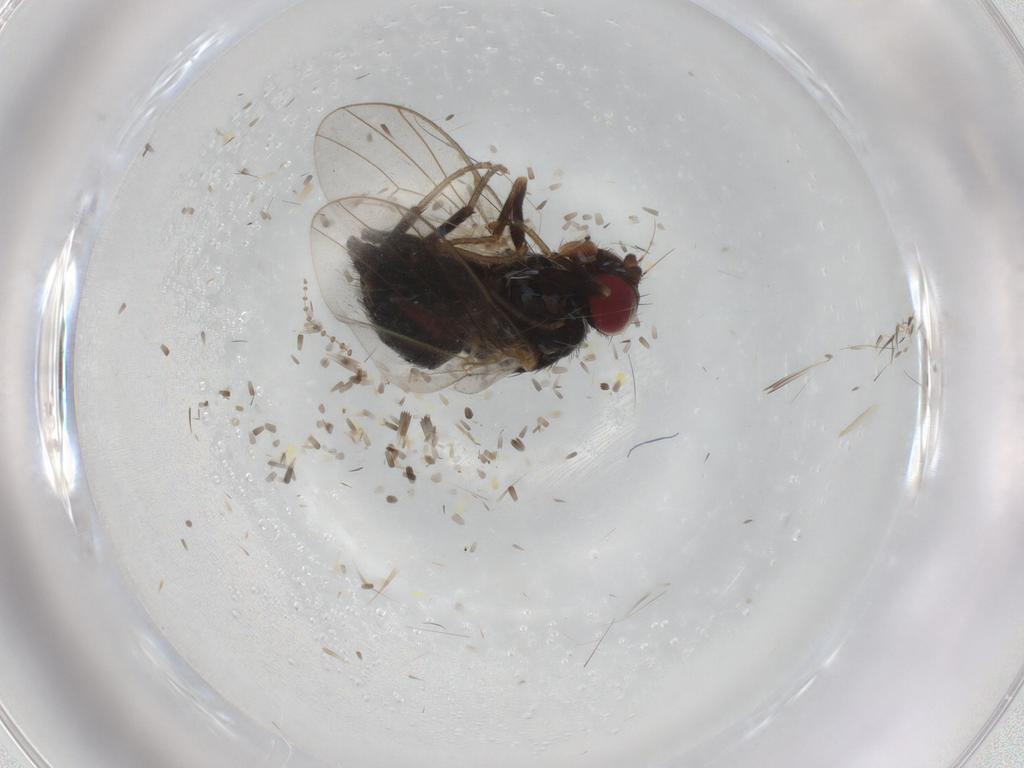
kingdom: Animalia
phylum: Arthropoda
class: Insecta
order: Diptera
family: Agromyzidae
